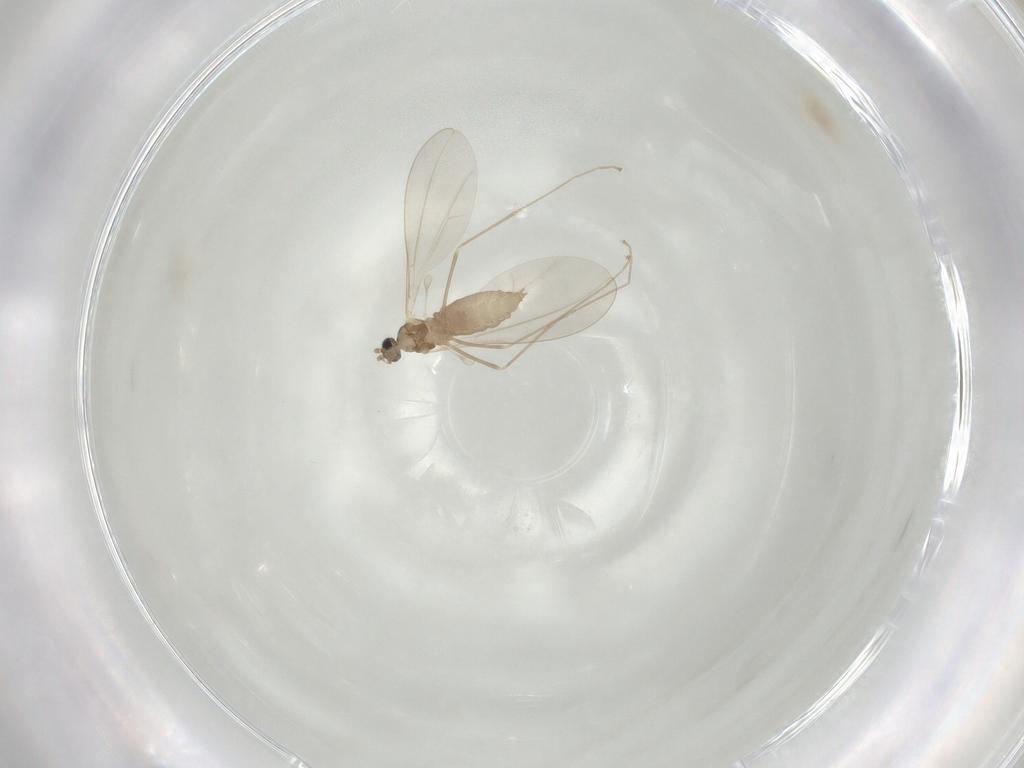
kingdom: Animalia
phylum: Arthropoda
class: Insecta
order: Diptera
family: Cecidomyiidae
